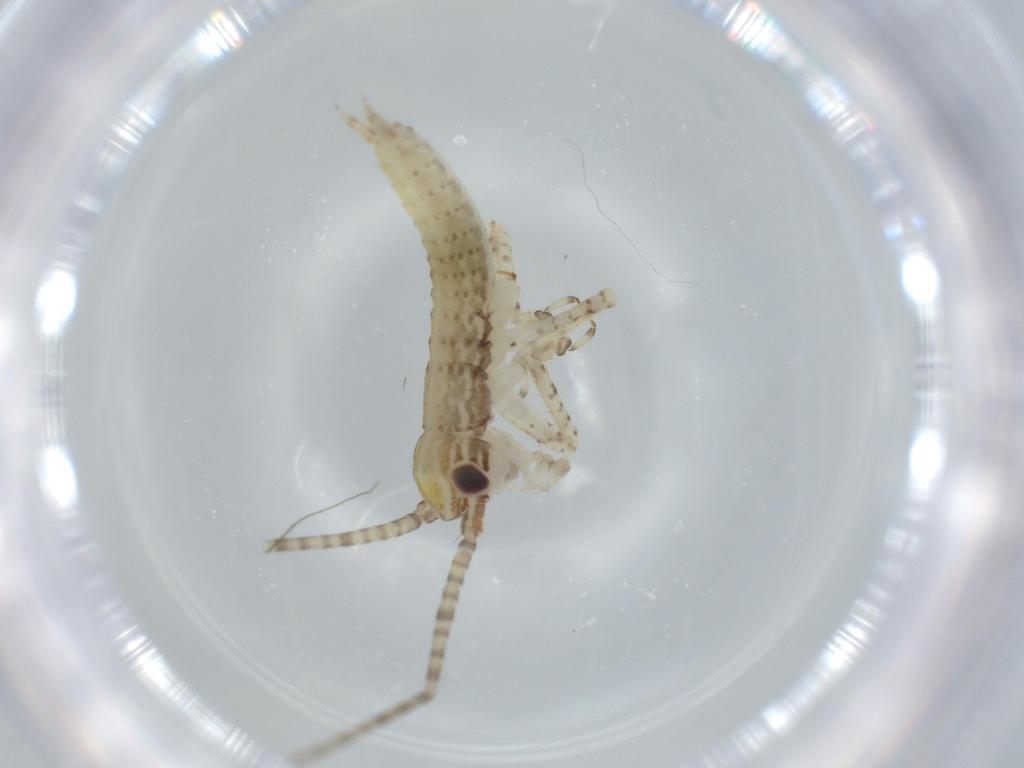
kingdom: Animalia
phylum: Arthropoda
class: Insecta
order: Orthoptera
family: Gryllidae
